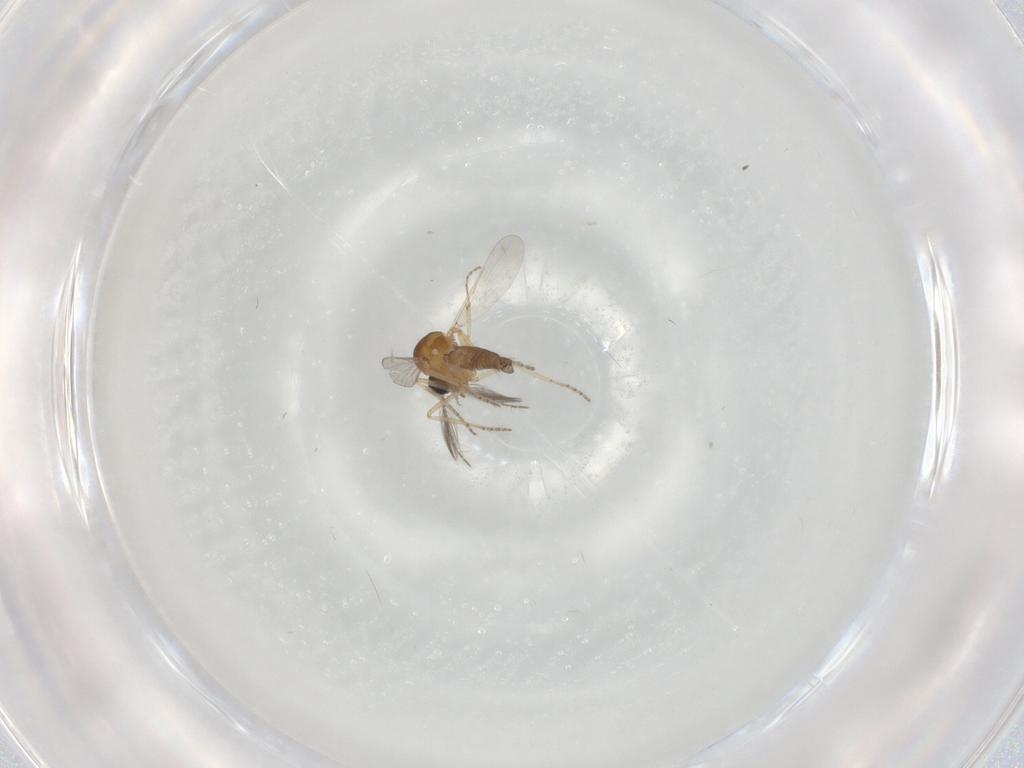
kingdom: Animalia
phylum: Arthropoda
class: Insecta
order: Diptera
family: Ceratopogonidae
